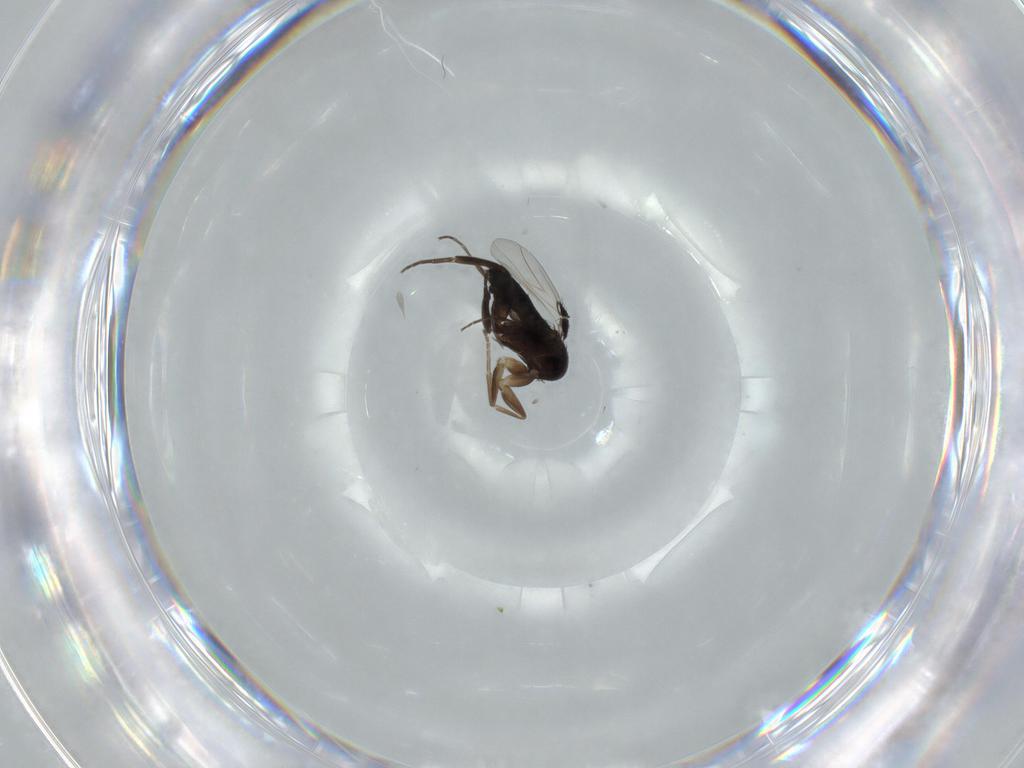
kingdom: Animalia
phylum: Arthropoda
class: Insecta
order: Diptera
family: Phoridae
